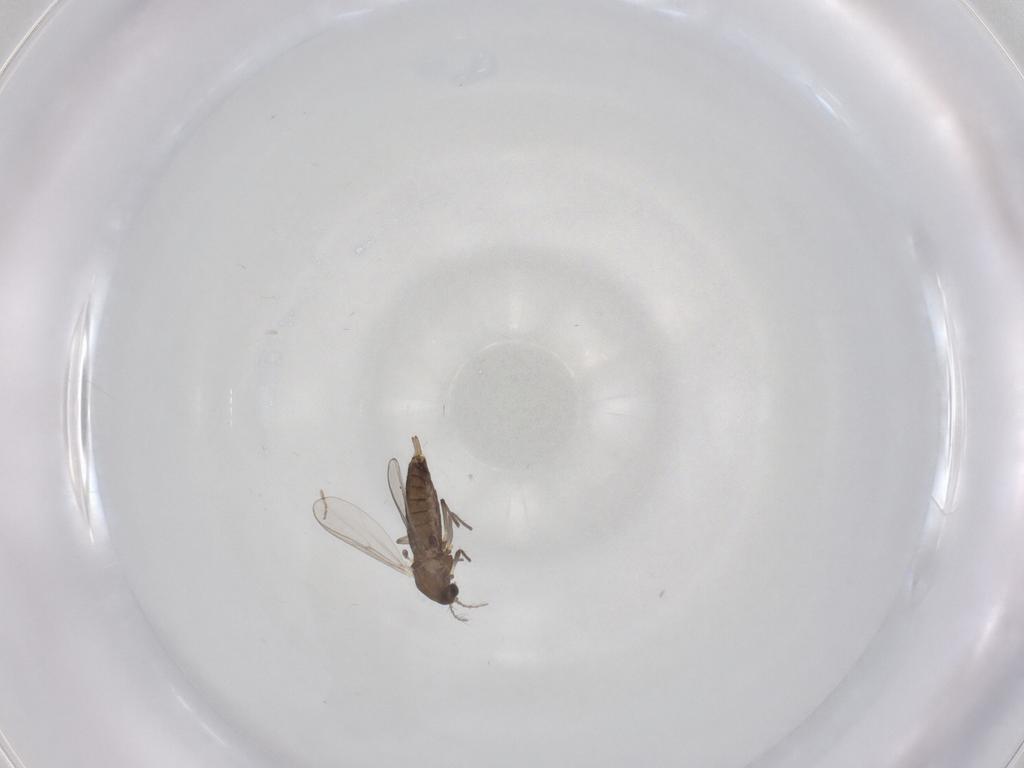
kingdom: Animalia
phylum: Arthropoda
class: Insecta
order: Diptera
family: Chironomidae
